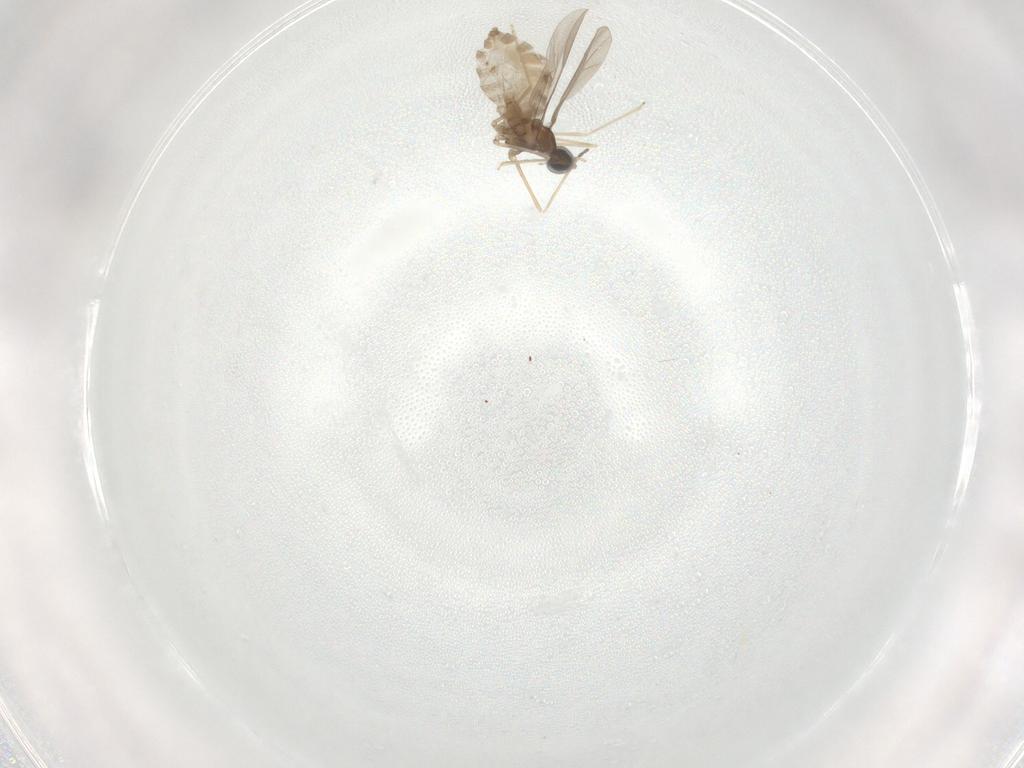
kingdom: Animalia
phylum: Arthropoda
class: Insecta
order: Diptera
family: Cecidomyiidae
